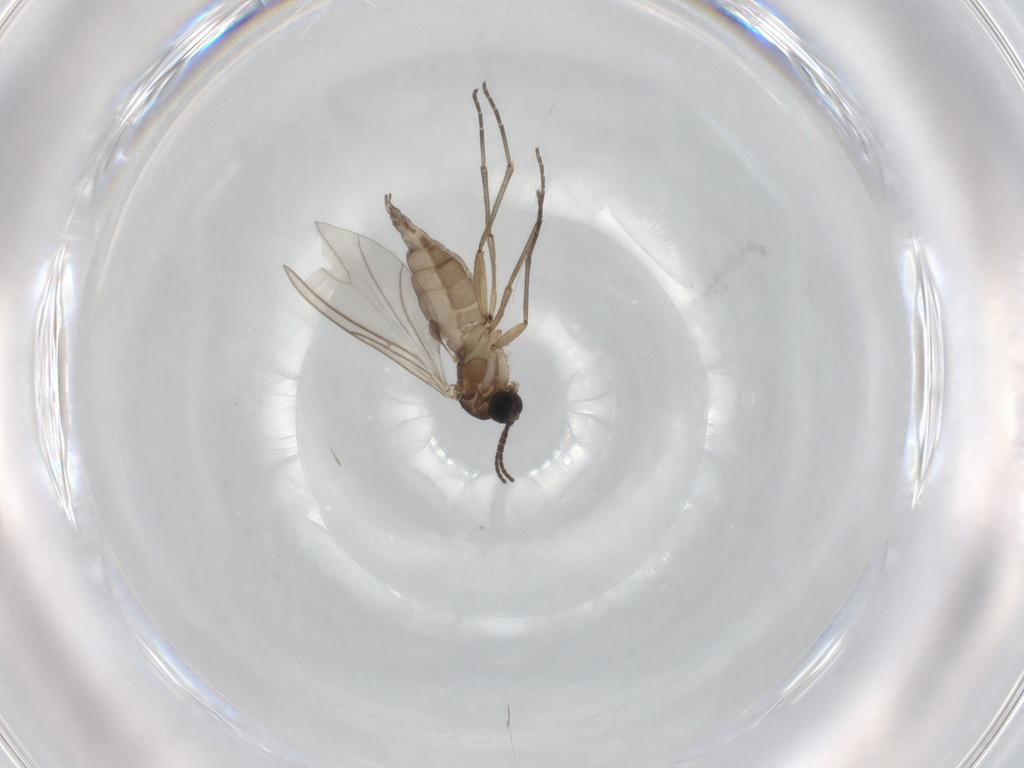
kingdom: Animalia
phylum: Arthropoda
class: Insecta
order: Diptera
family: Sciaridae
